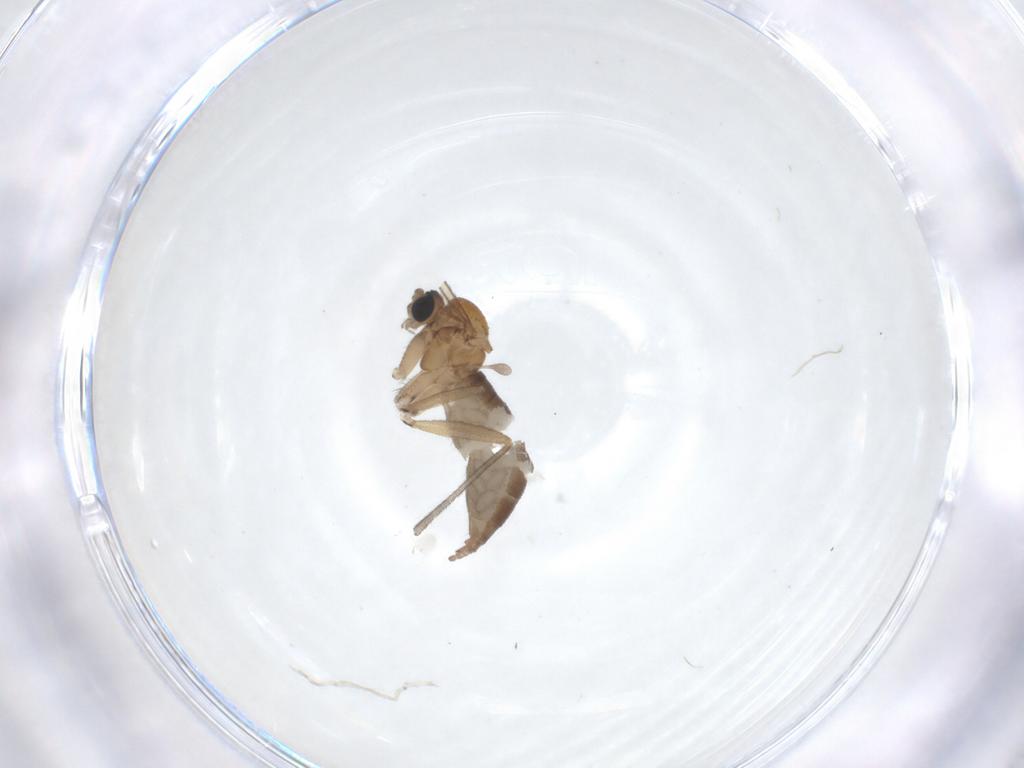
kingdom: Animalia
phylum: Arthropoda
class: Insecta
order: Diptera
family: Sciaridae
